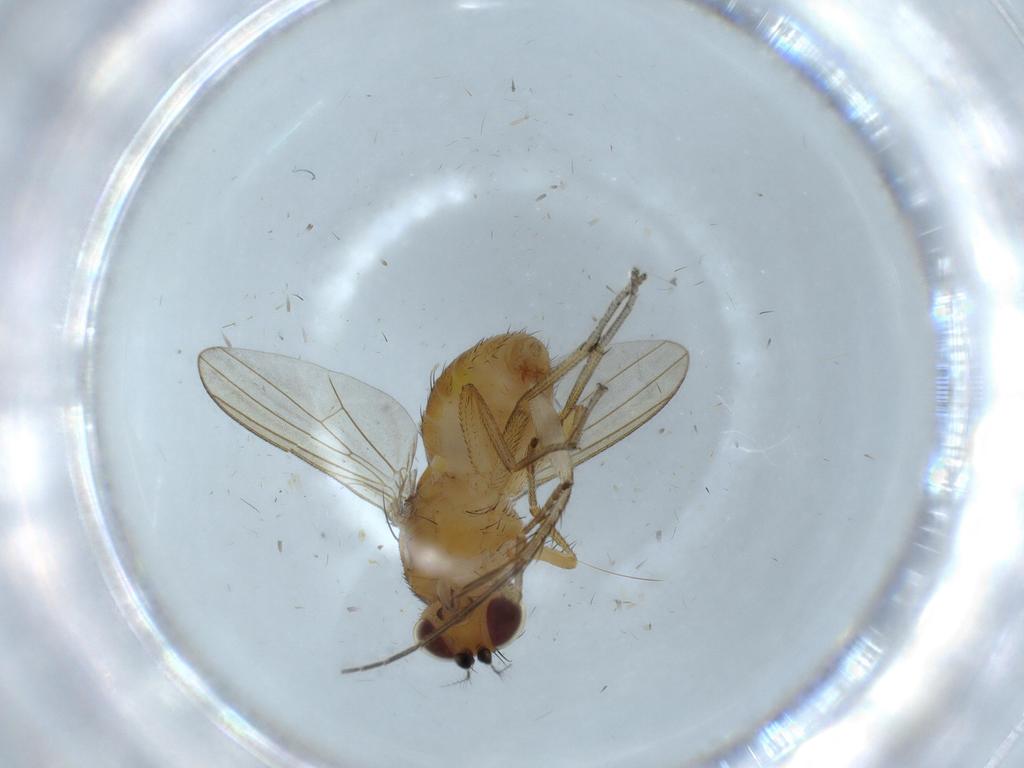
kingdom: Animalia
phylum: Arthropoda
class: Insecta
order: Diptera
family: Lauxaniidae
